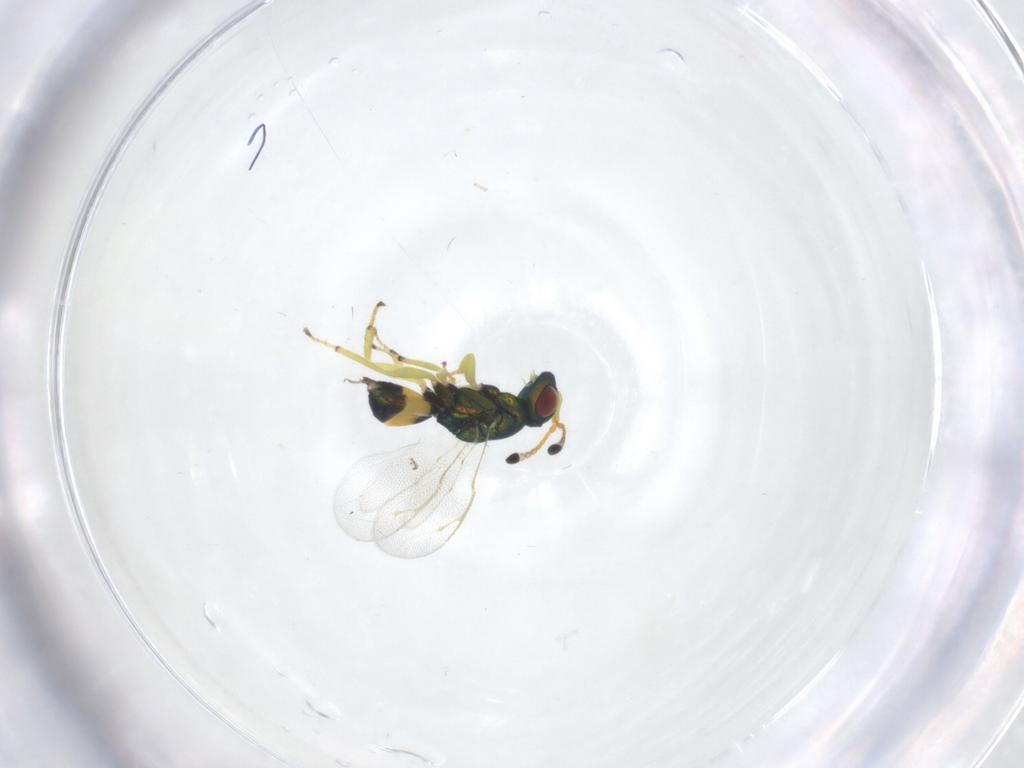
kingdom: Animalia
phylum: Arthropoda
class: Insecta
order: Hymenoptera
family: Pteromalidae
